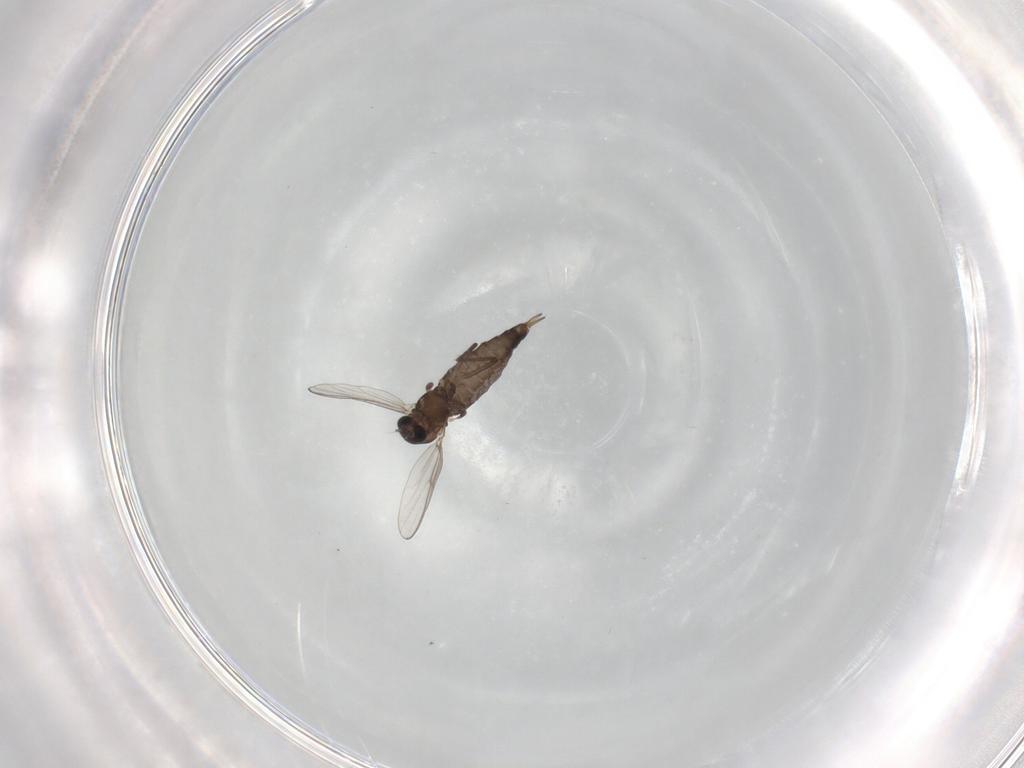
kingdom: Animalia
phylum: Arthropoda
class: Insecta
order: Diptera
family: Chironomidae
